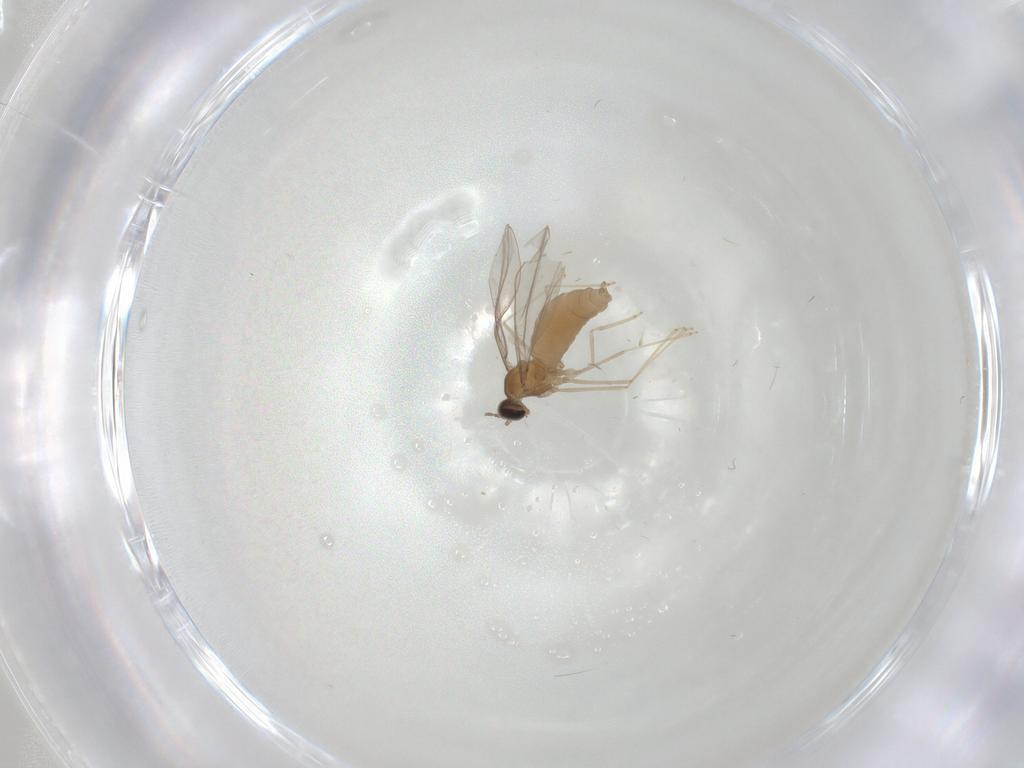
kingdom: Animalia
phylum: Arthropoda
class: Insecta
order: Diptera
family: Cecidomyiidae
